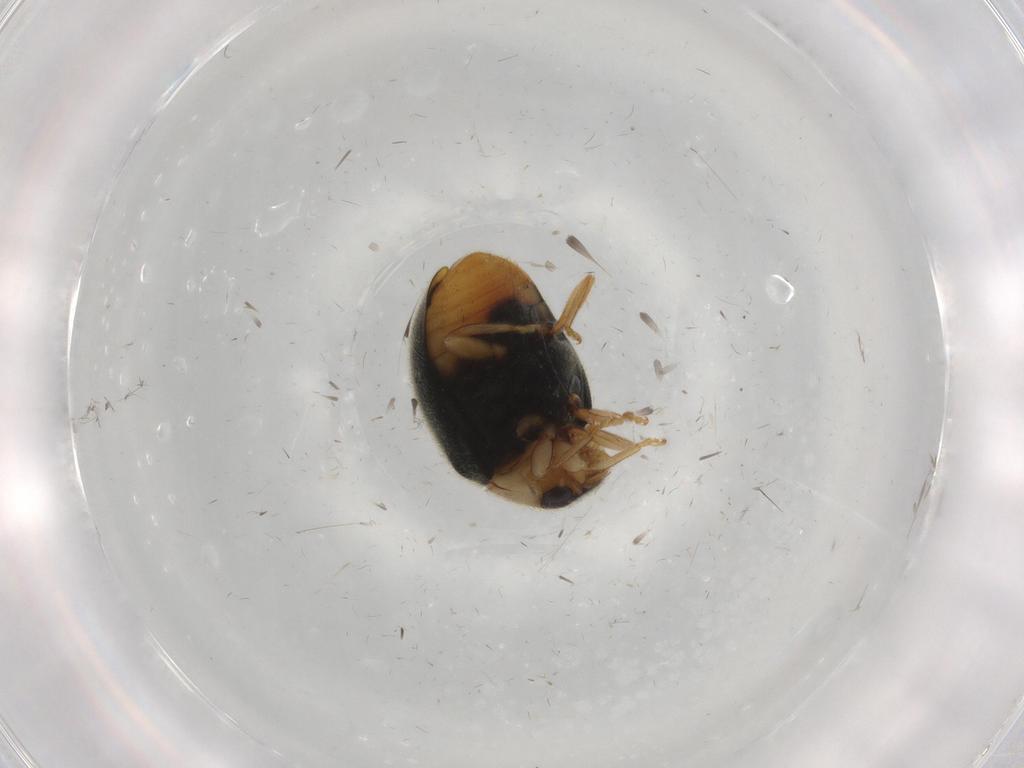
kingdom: Animalia
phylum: Arthropoda
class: Insecta
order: Coleoptera
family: Coccinellidae
